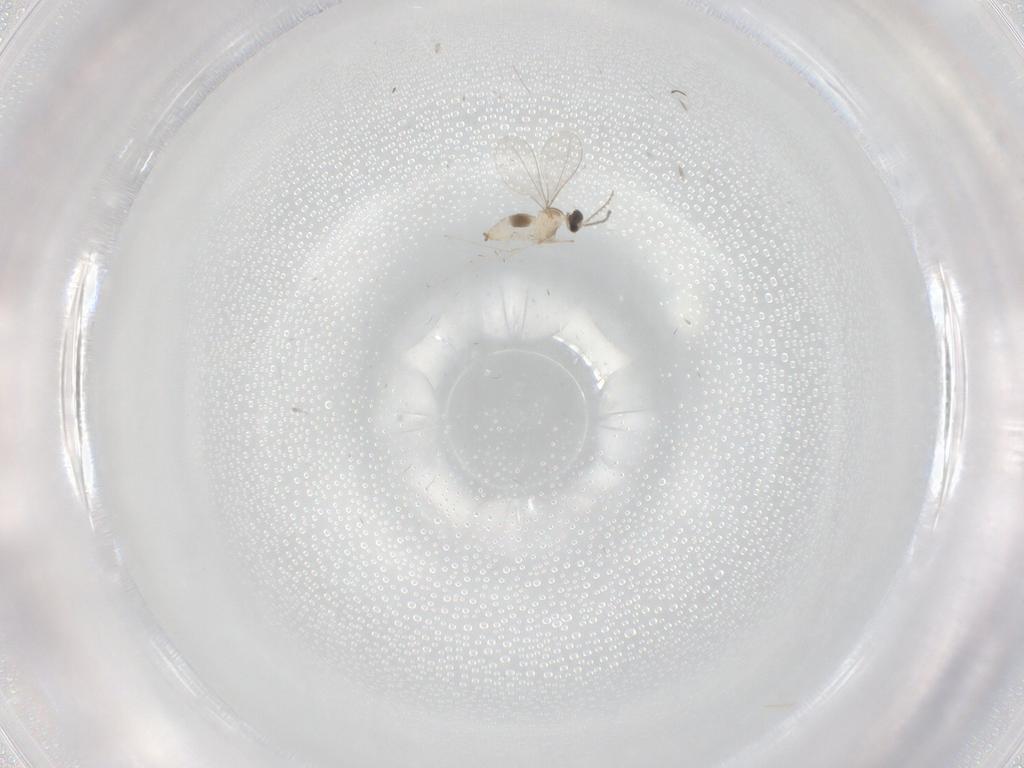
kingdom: Animalia
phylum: Arthropoda
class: Insecta
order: Diptera
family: Cecidomyiidae
